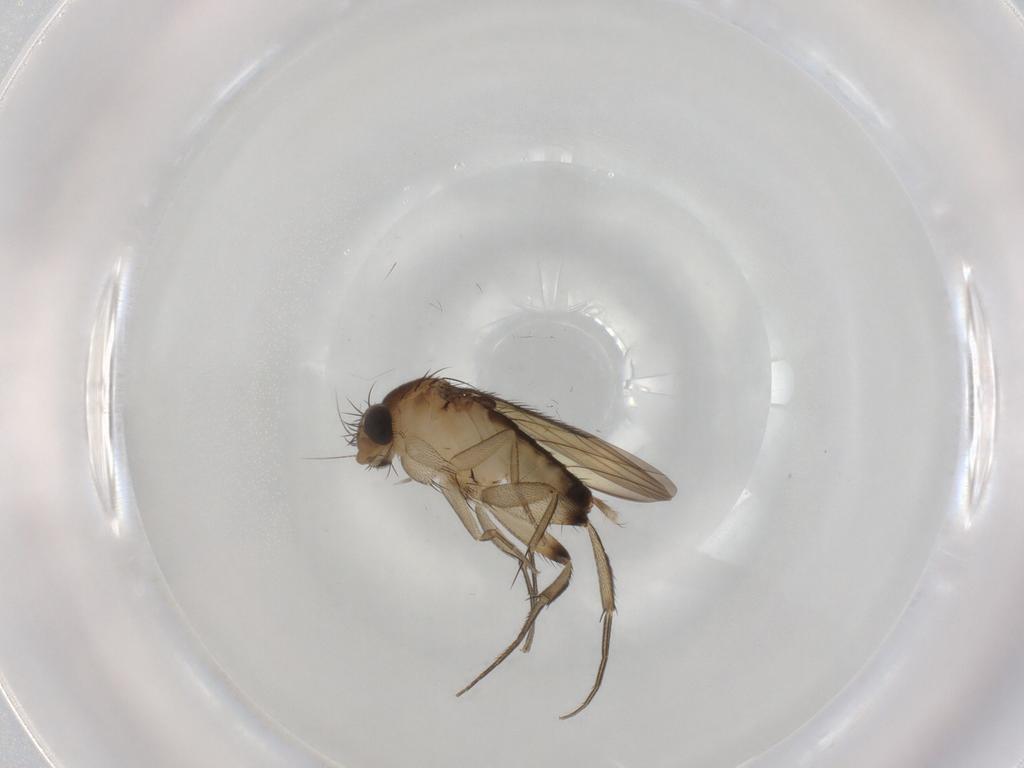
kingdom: Animalia
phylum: Arthropoda
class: Insecta
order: Diptera
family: Phoridae
